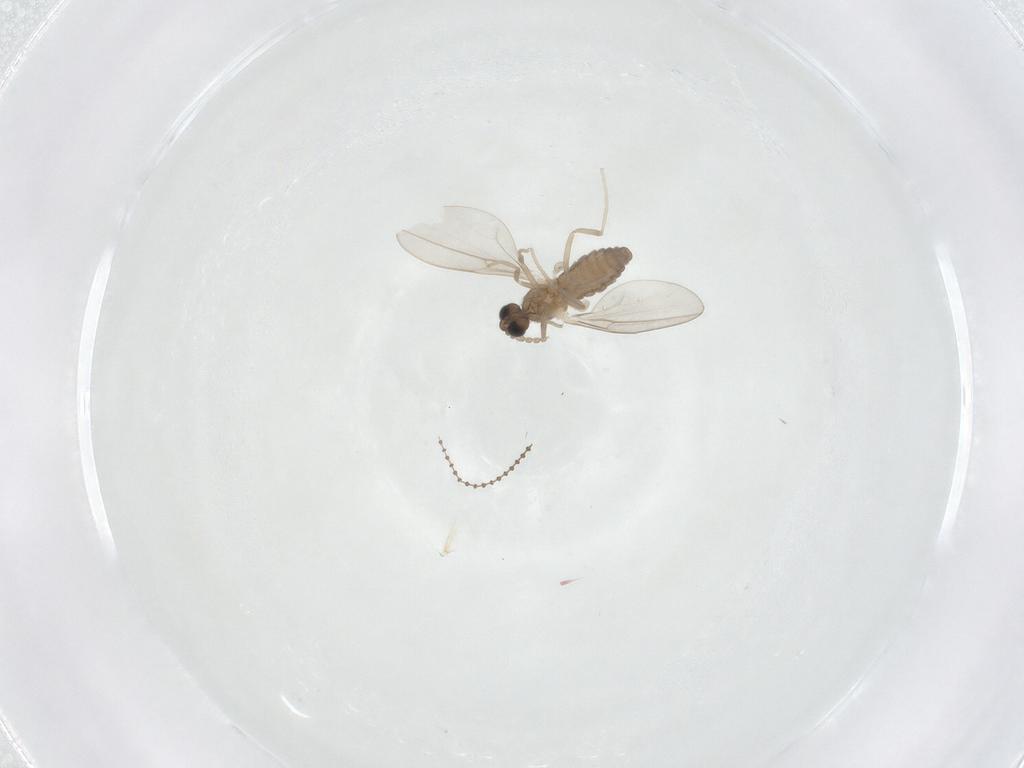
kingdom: Animalia
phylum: Arthropoda
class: Insecta
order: Diptera
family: Cecidomyiidae
